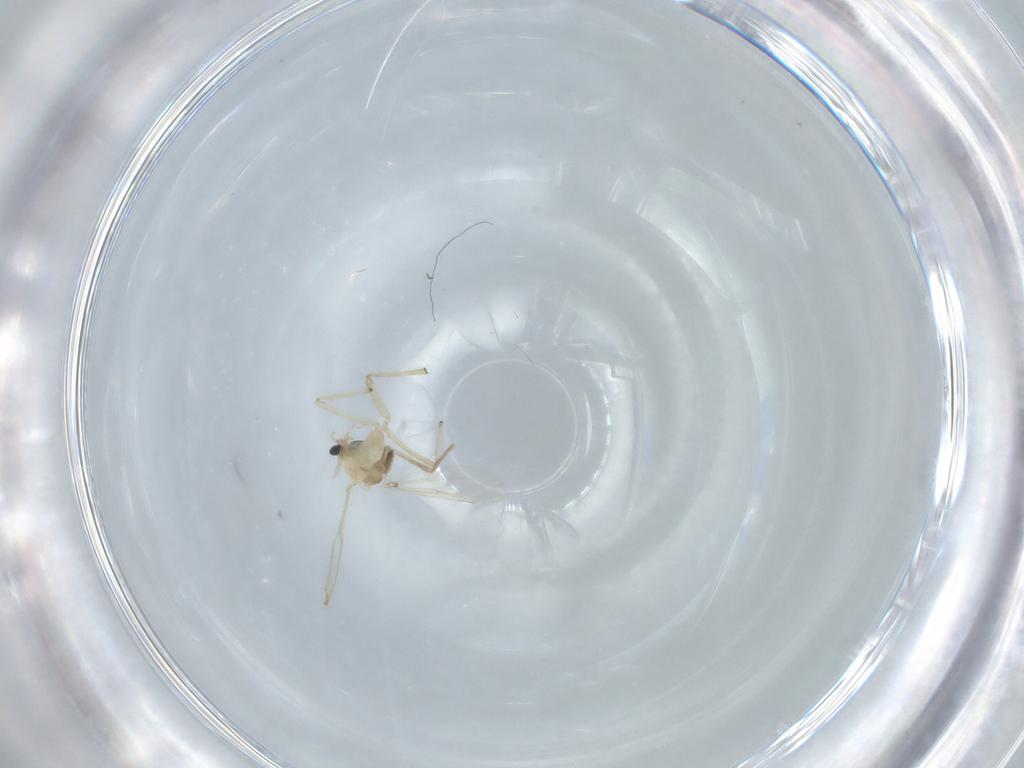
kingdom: Animalia
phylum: Arthropoda
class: Insecta
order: Diptera
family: Chironomidae
